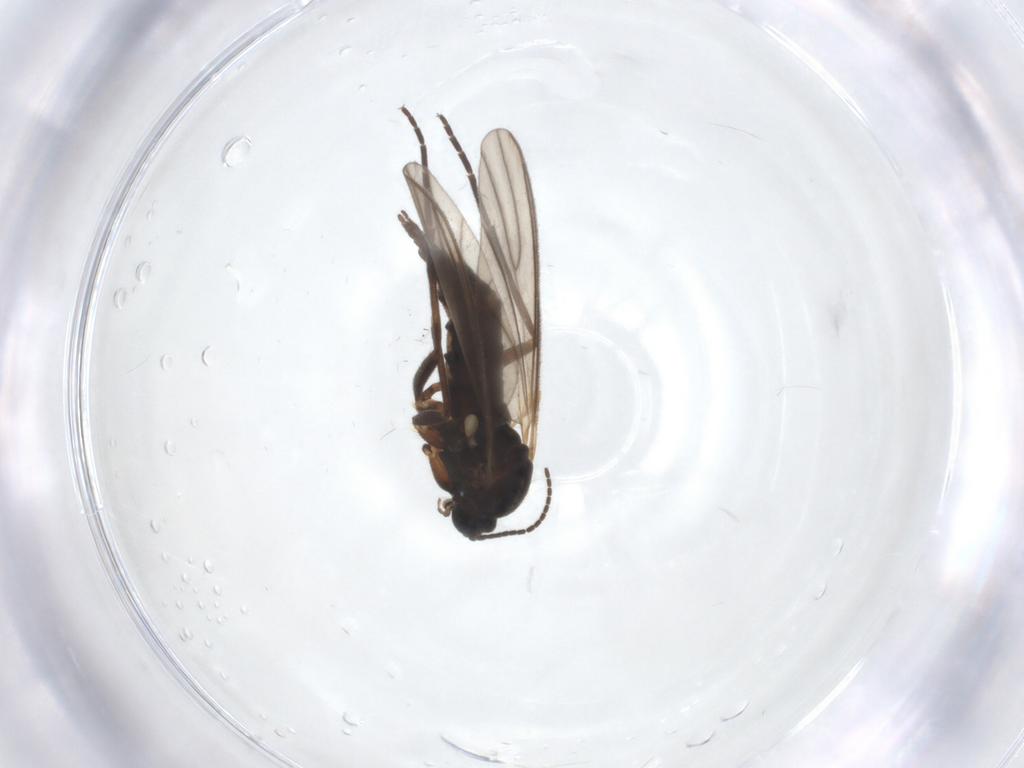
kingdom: Animalia
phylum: Arthropoda
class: Insecta
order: Diptera
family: Sciaridae
